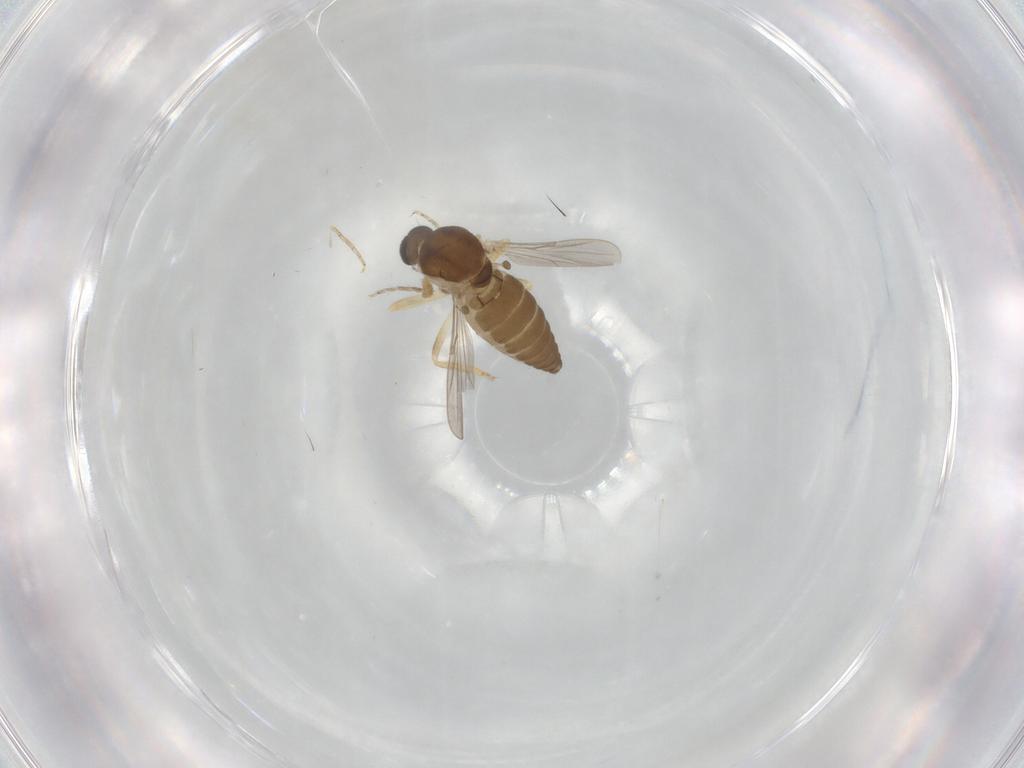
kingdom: Animalia
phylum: Arthropoda
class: Insecta
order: Diptera
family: Ceratopogonidae
